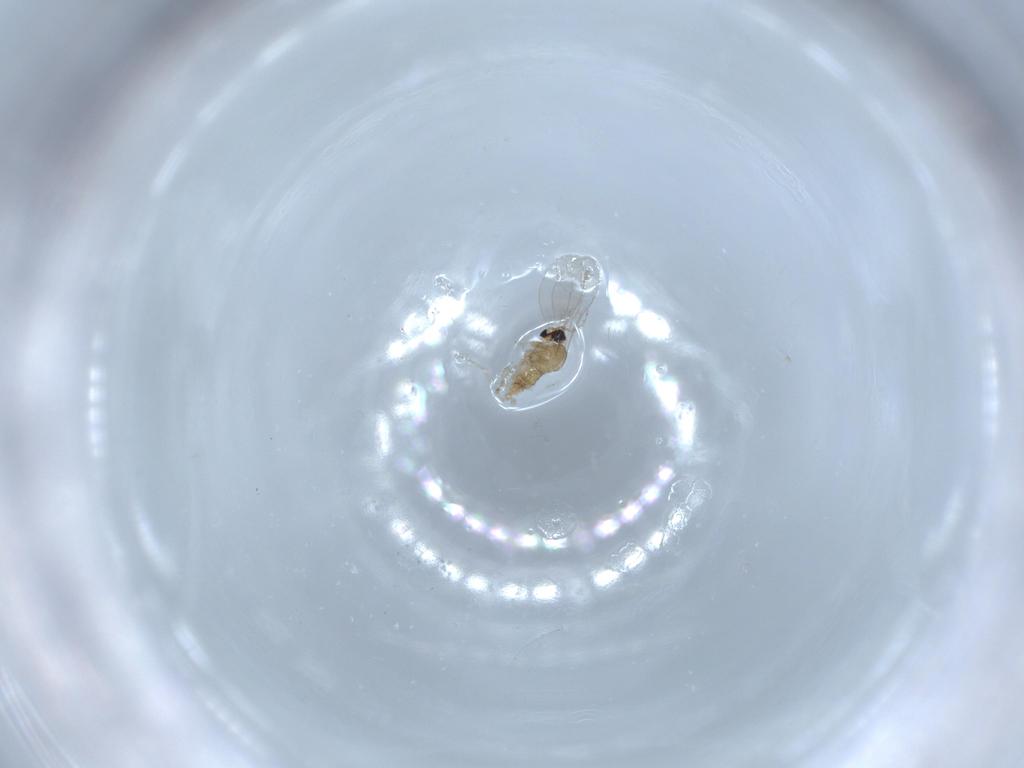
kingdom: Animalia
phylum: Arthropoda
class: Insecta
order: Diptera
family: Cecidomyiidae
